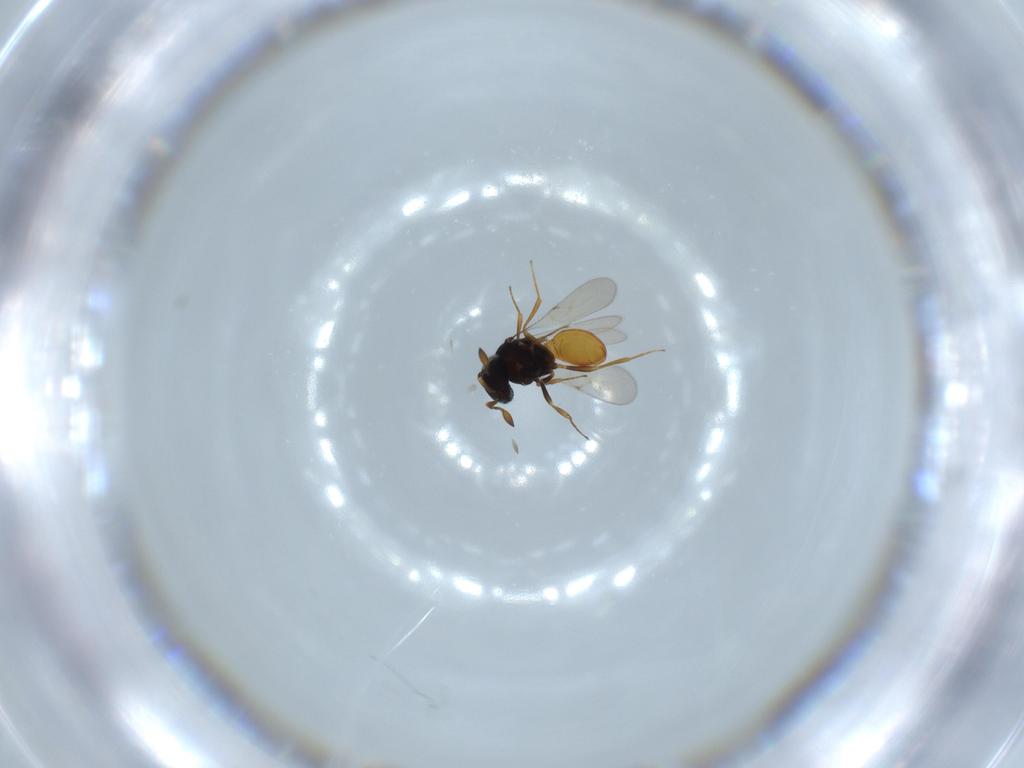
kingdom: Animalia
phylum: Arthropoda
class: Insecta
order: Hymenoptera
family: Scelionidae
